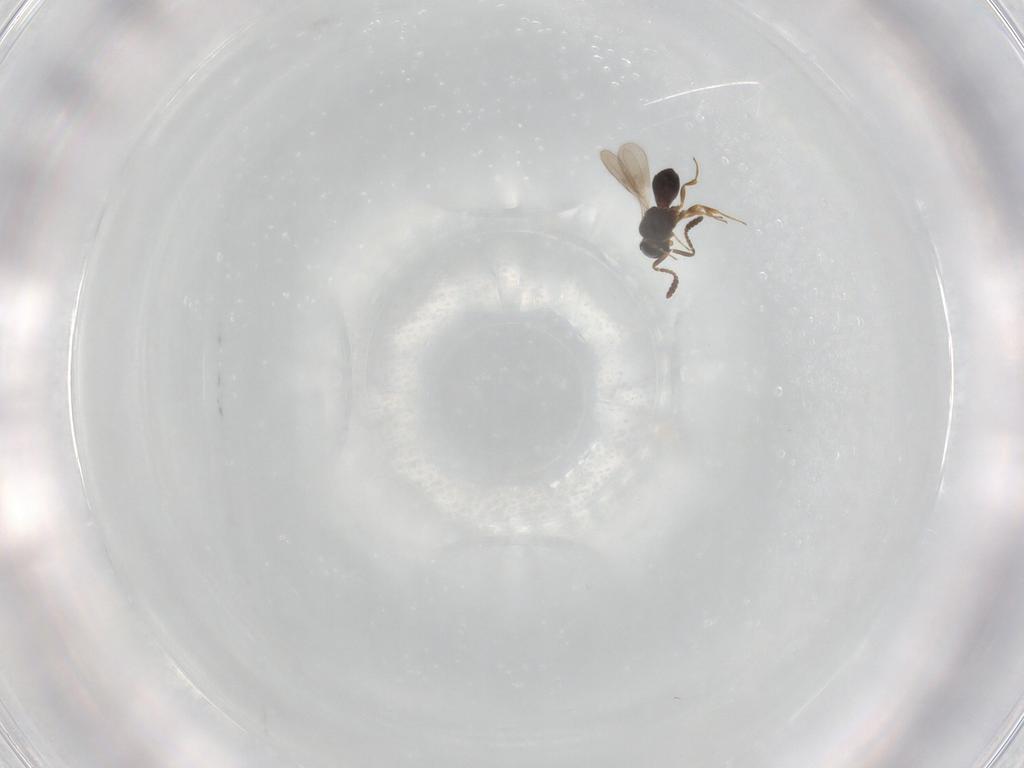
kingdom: Animalia
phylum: Arthropoda
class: Insecta
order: Hymenoptera
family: Scelionidae
